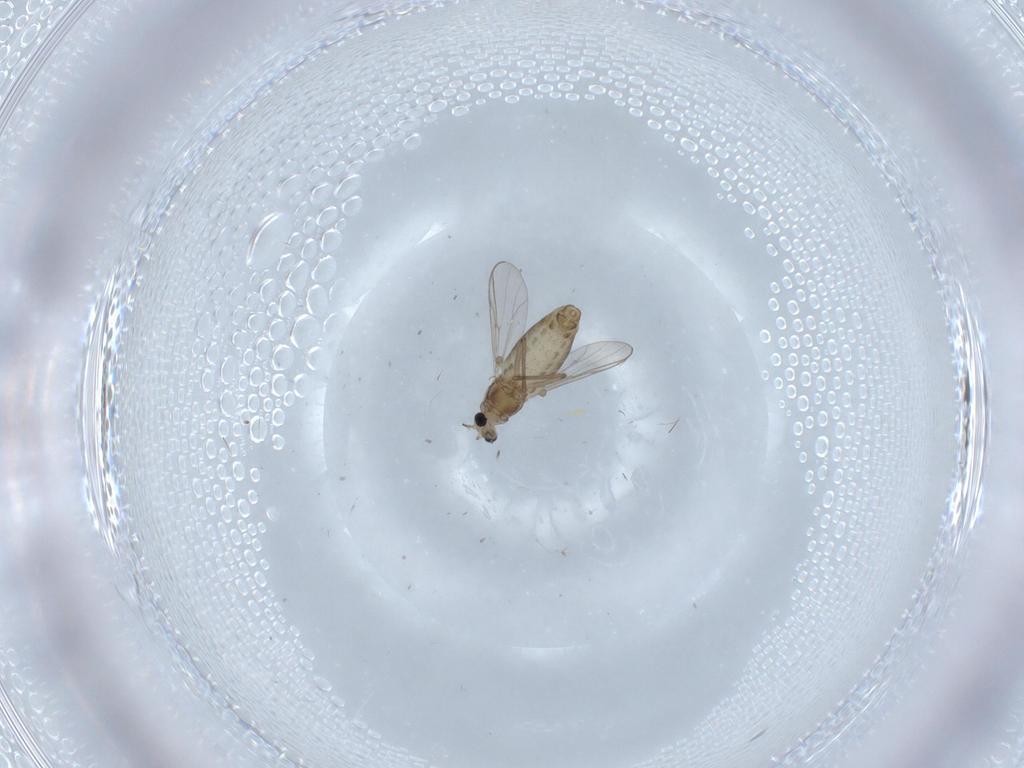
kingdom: Animalia
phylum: Arthropoda
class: Insecta
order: Diptera
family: Chironomidae
